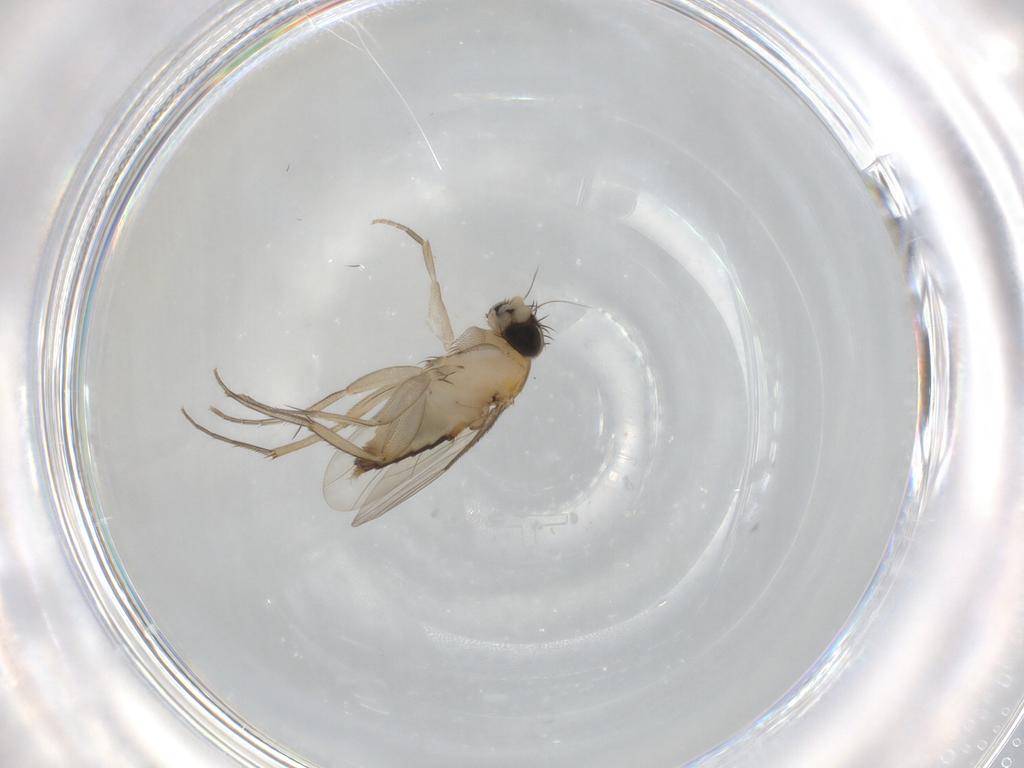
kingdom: Animalia
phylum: Arthropoda
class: Insecta
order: Diptera
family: Phoridae
